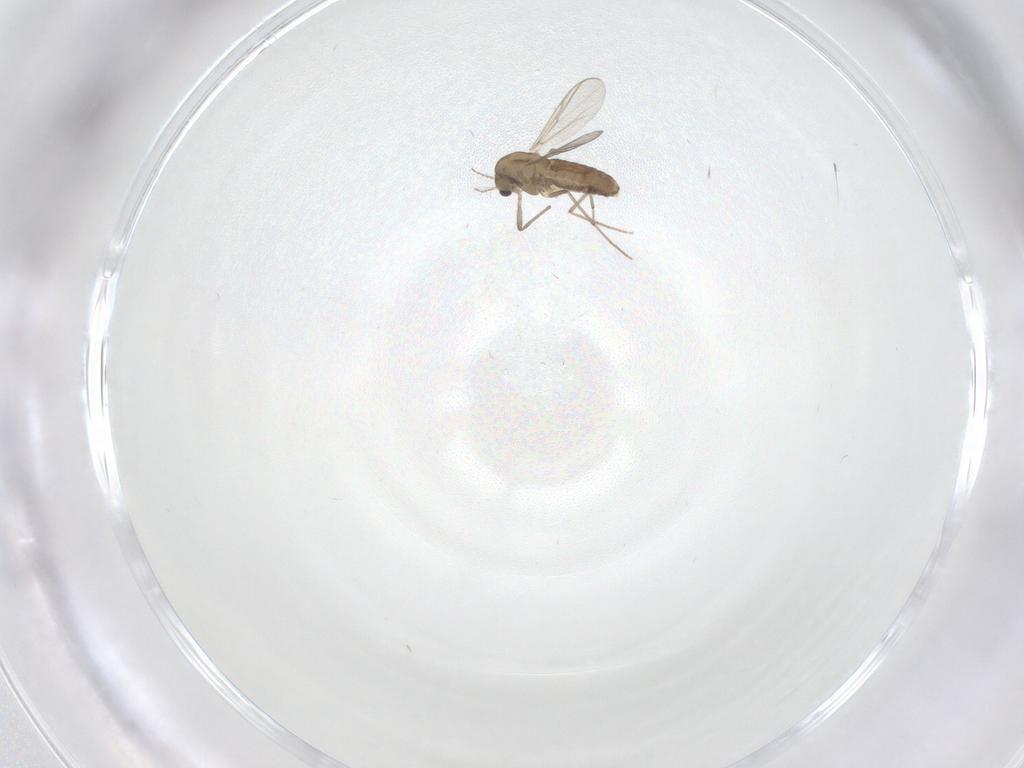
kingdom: Animalia
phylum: Arthropoda
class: Insecta
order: Diptera
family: Chironomidae
